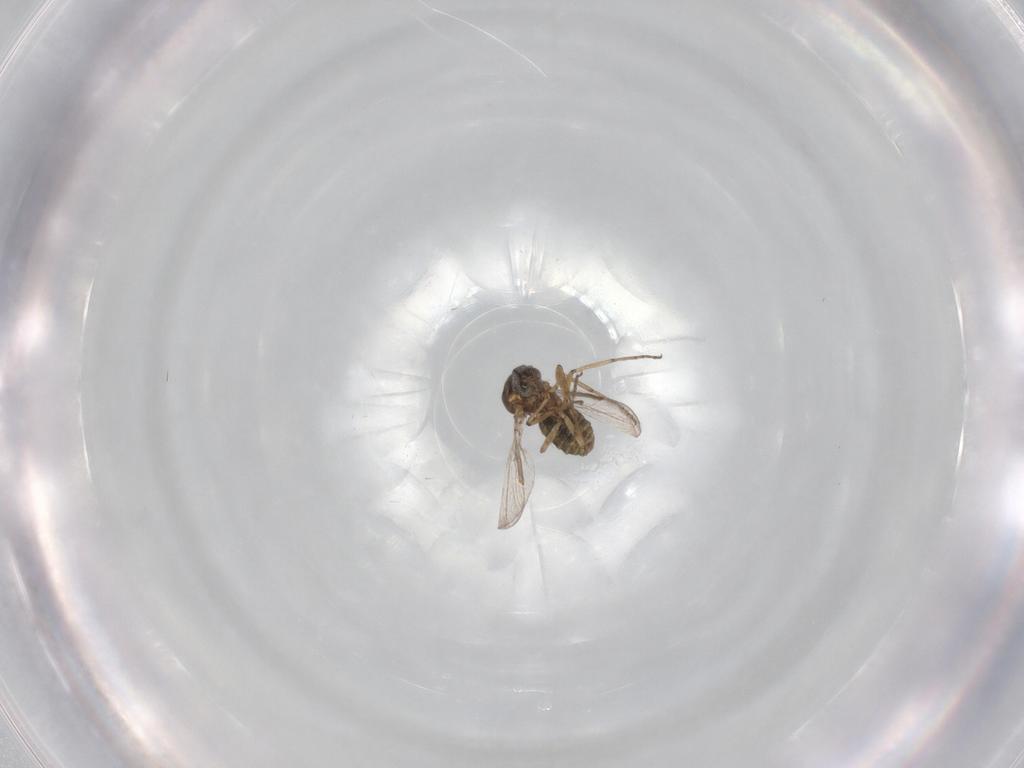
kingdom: Animalia
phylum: Arthropoda
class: Insecta
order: Diptera
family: Ceratopogonidae
